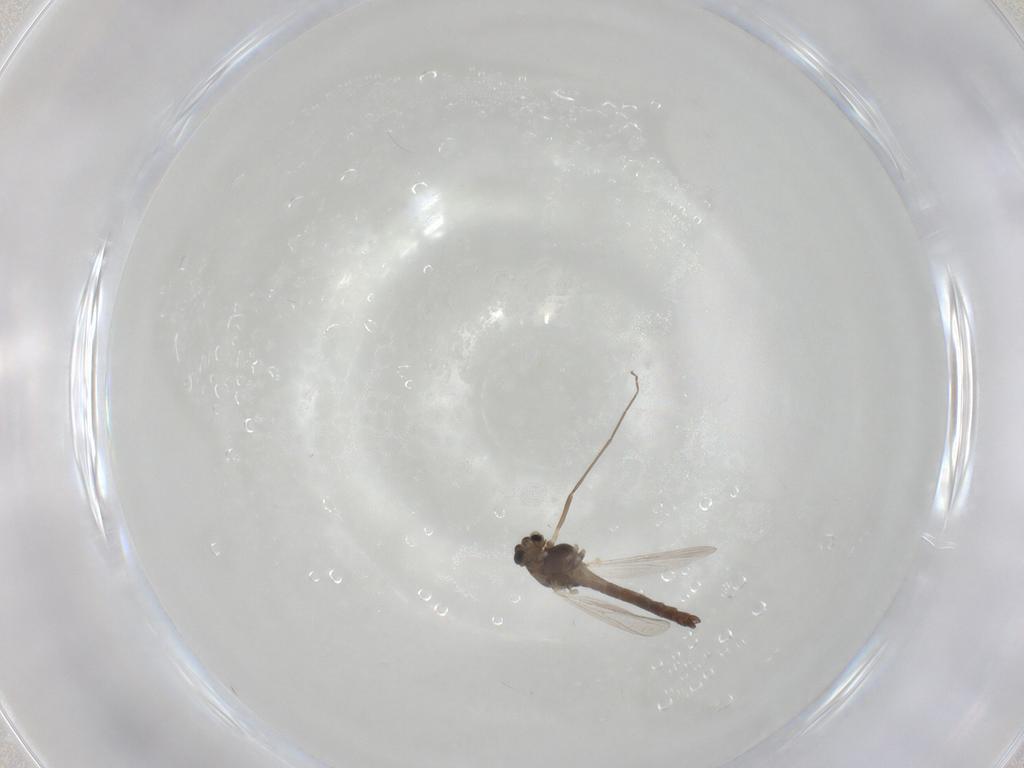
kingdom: Animalia
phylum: Arthropoda
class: Insecta
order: Diptera
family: Chironomidae
